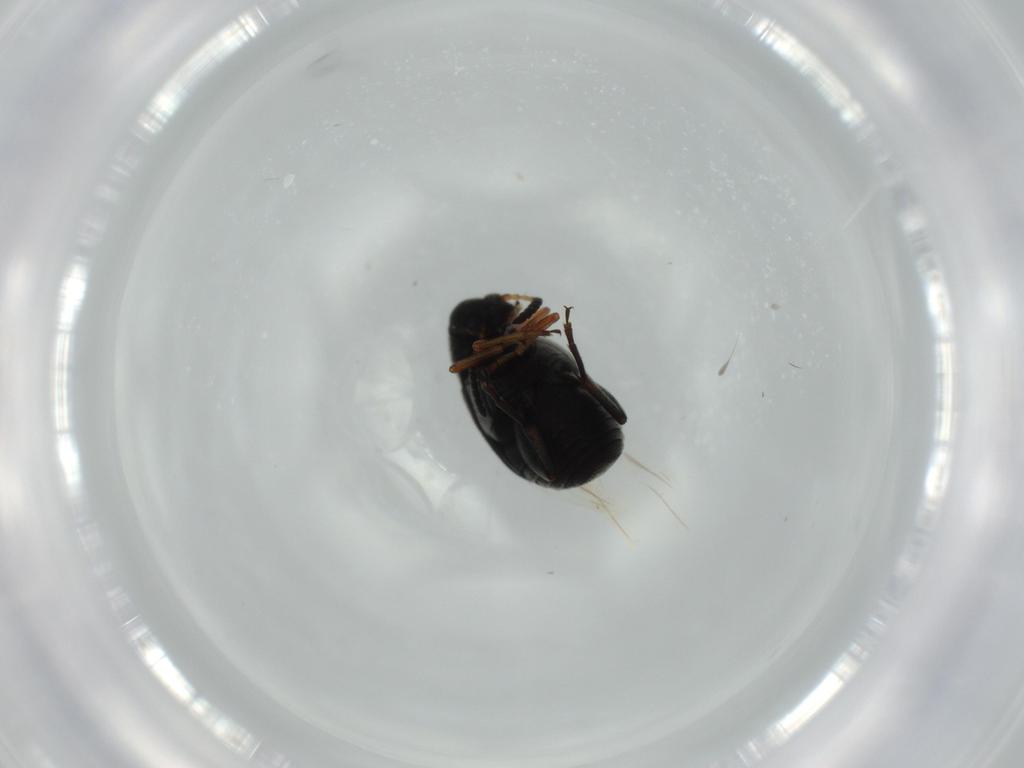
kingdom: Animalia
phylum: Arthropoda
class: Insecta
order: Coleoptera
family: Chrysomelidae
